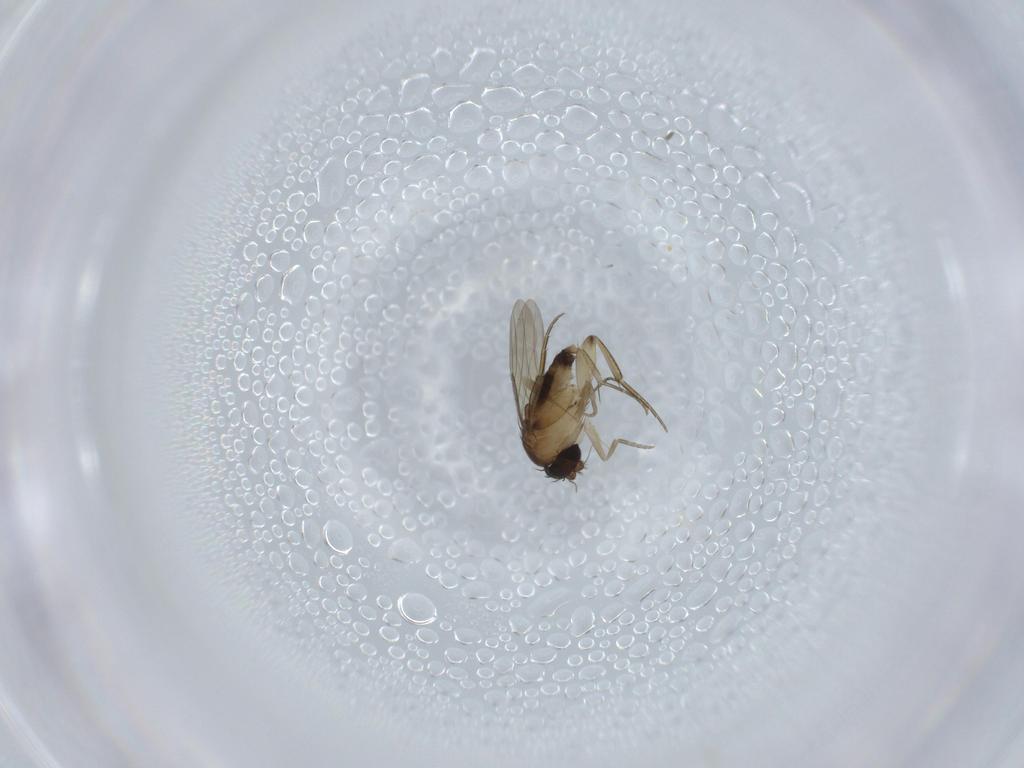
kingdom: Animalia
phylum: Arthropoda
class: Insecta
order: Diptera
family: Phoridae
